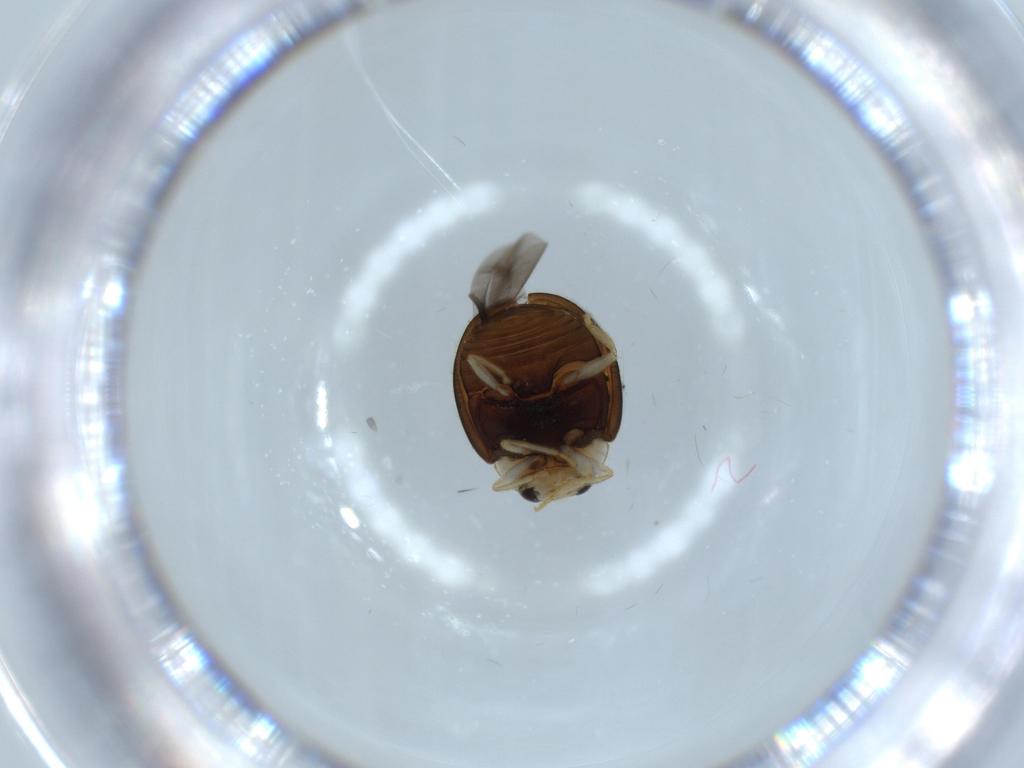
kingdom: Animalia
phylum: Arthropoda
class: Insecta
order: Coleoptera
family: Coccinellidae
